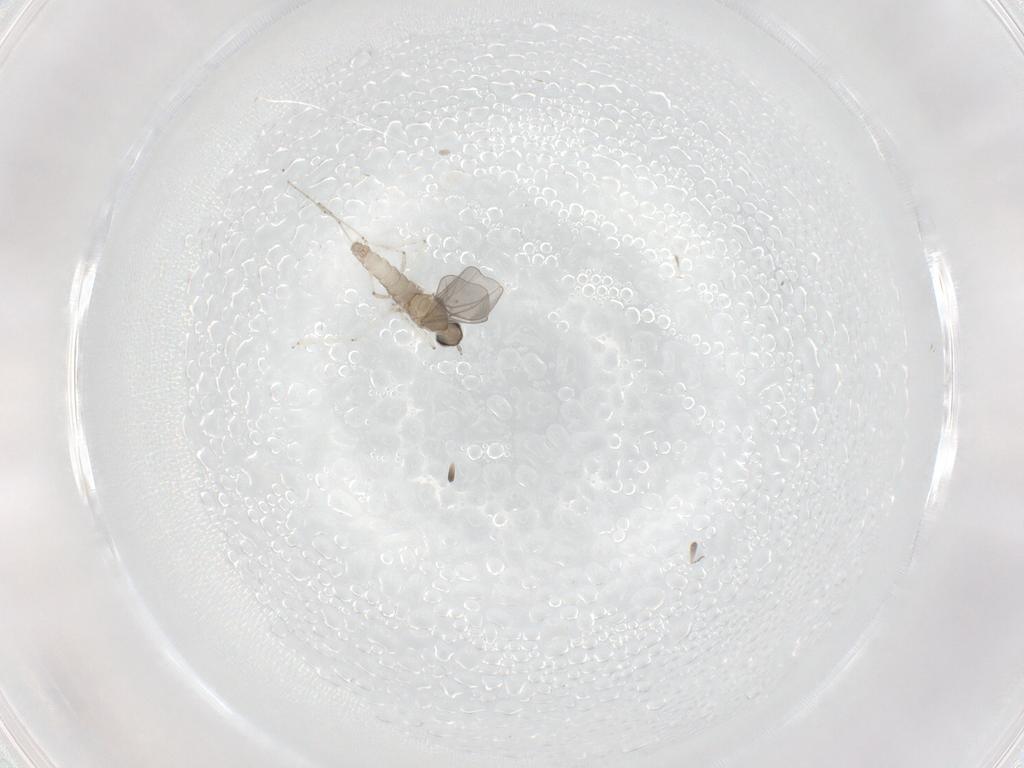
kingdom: Animalia
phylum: Arthropoda
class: Insecta
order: Diptera
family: Cecidomyiidae
